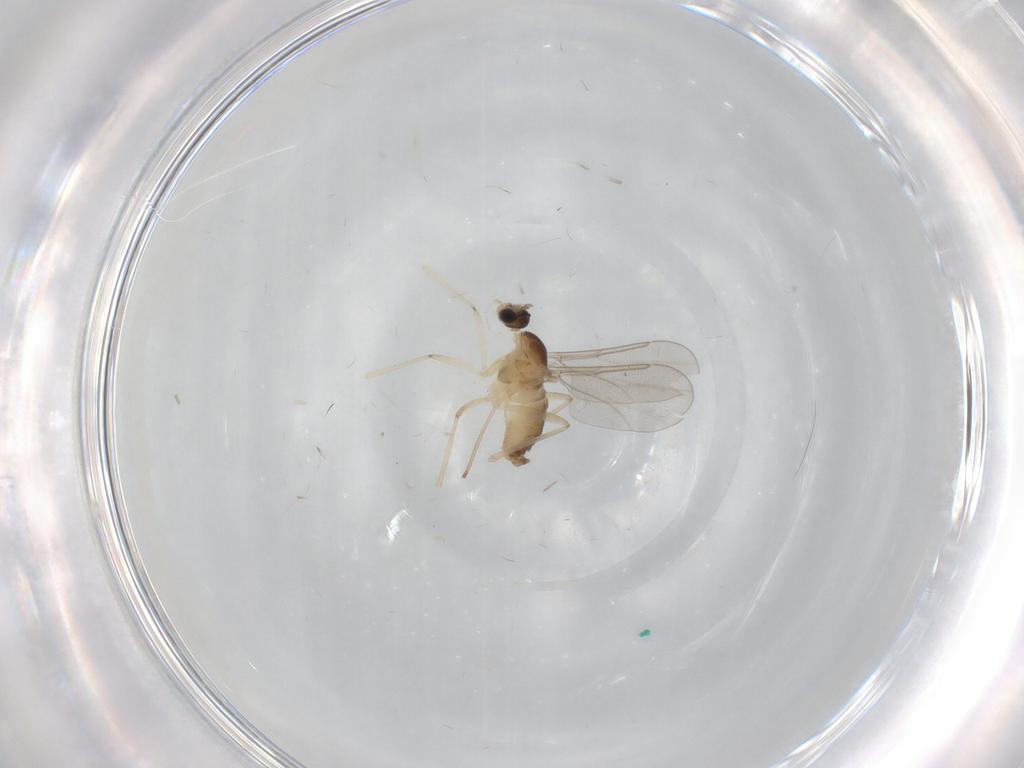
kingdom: Animalia
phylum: Arthropoda
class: Insecta
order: Diptera
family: Cecidomyiidae
